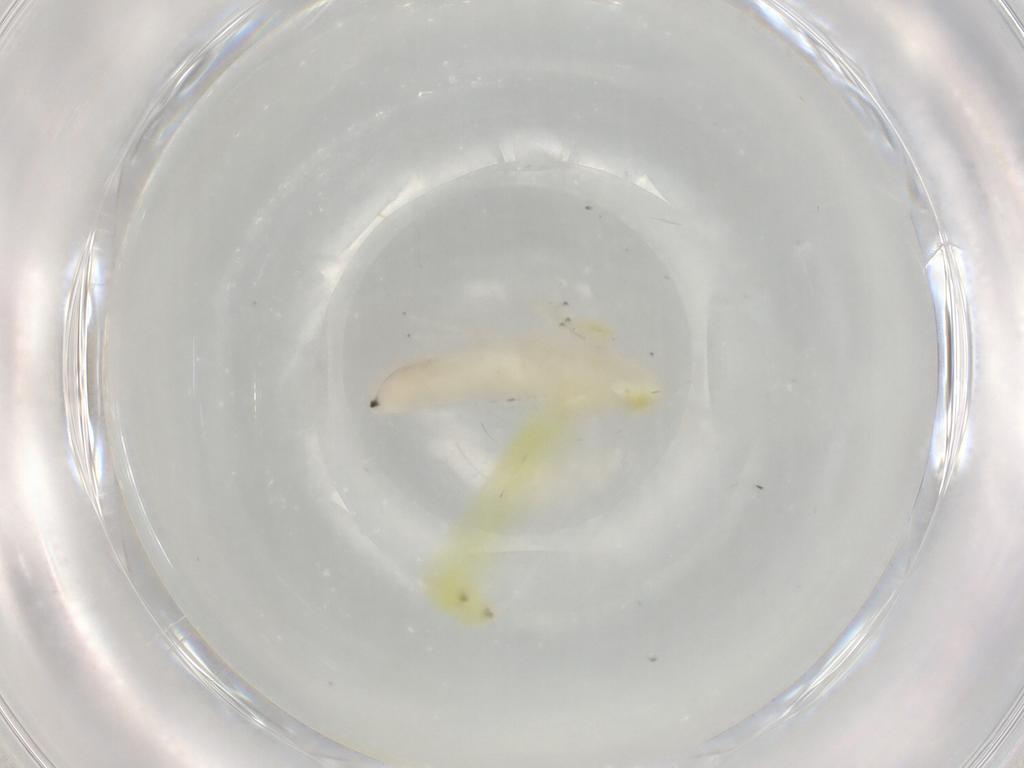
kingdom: Animalia
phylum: Arthropoda
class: Insecta
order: Hemiptera
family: Cicadellidae
